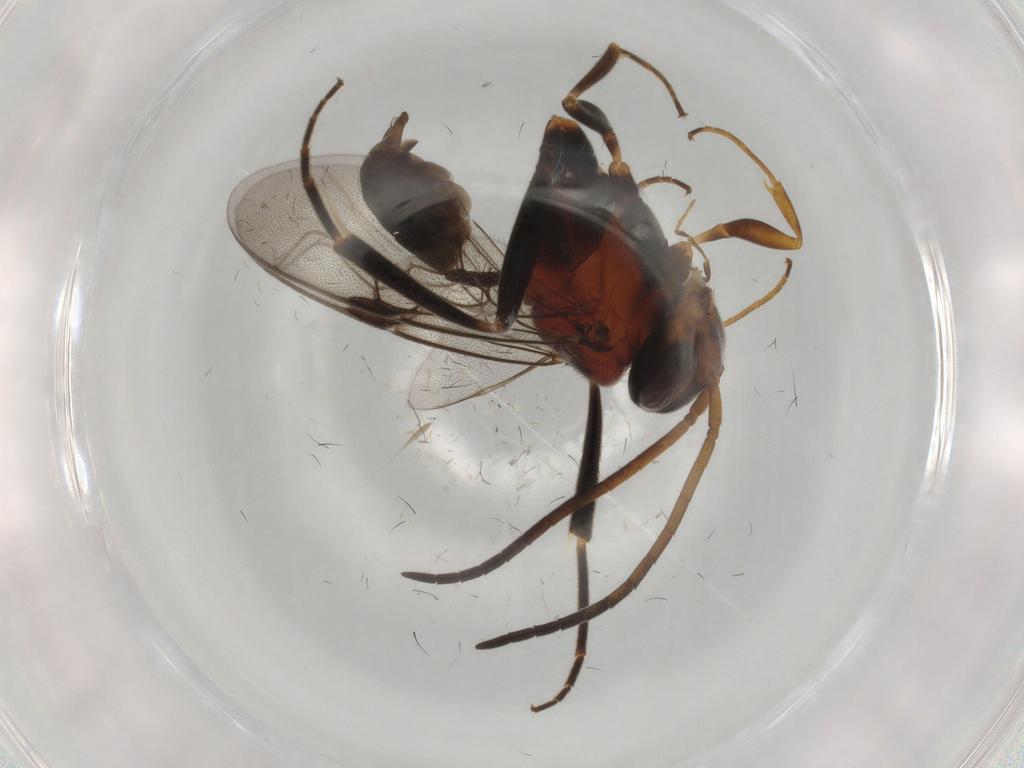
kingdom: Animalia
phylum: Arthropoda
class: Insecta
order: Hymenoptera
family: Evaniidae
